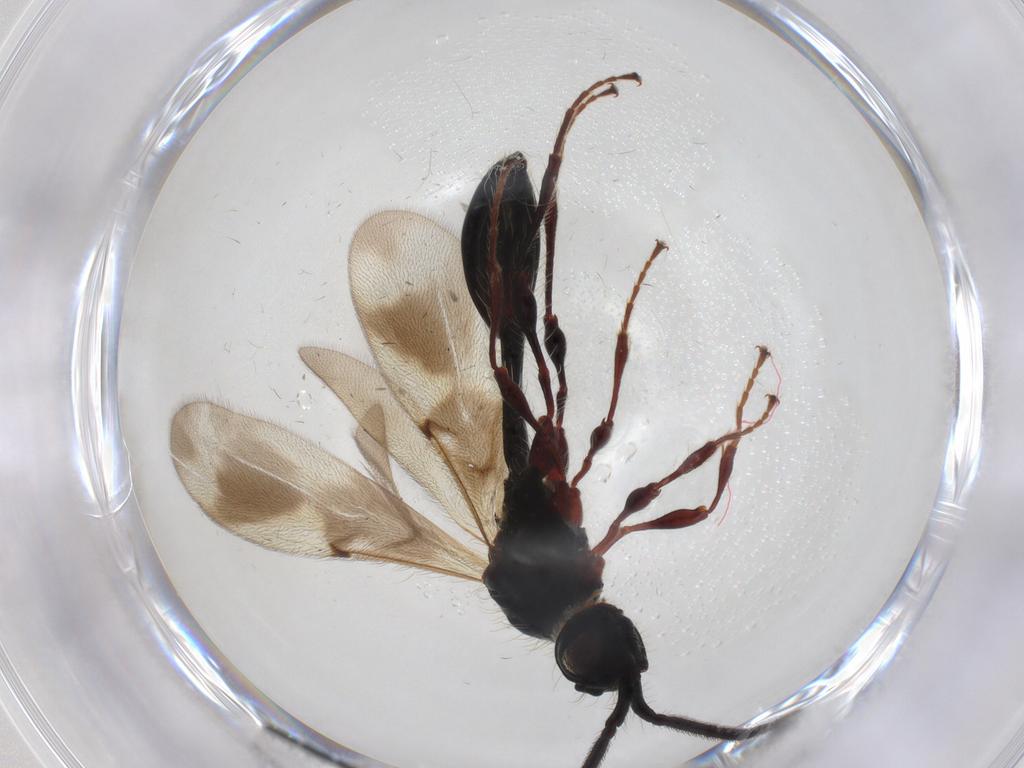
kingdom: Animalia
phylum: Arthropoda
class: Insecta
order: Hymenoptera
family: Diapriidae
